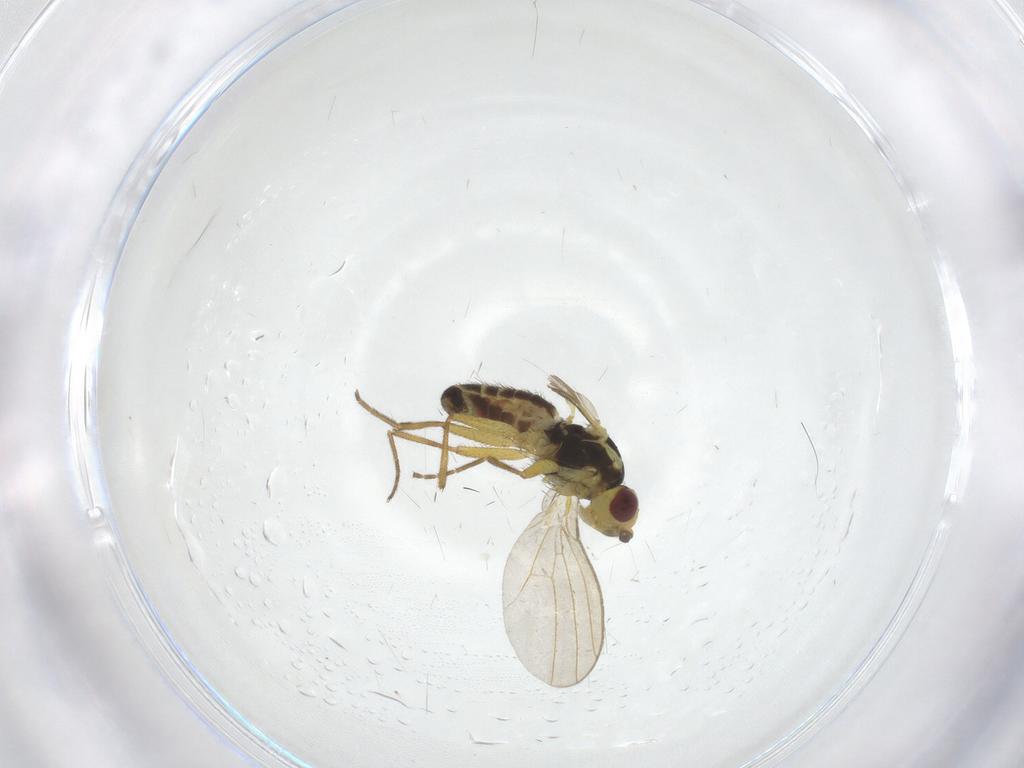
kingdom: Animalia
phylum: Arthropoda
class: Insecta
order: Diptera
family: Agromyzidae
